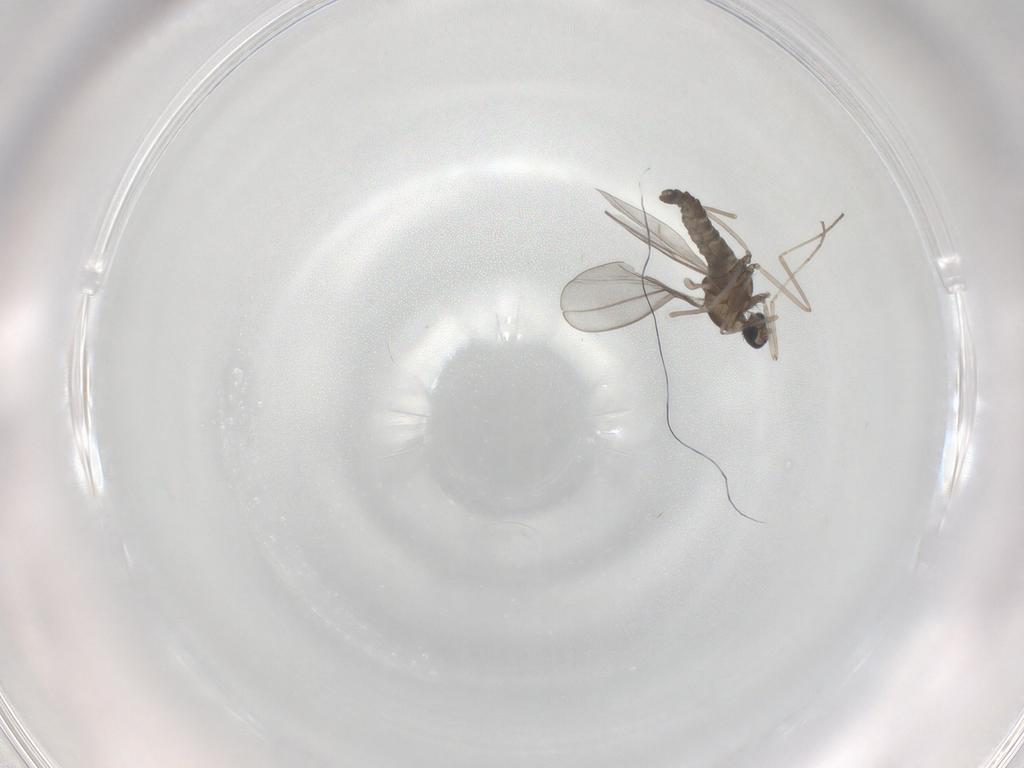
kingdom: Animalia
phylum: Arthropoda
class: Insecta
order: Diptera
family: Cecidomyiidae
